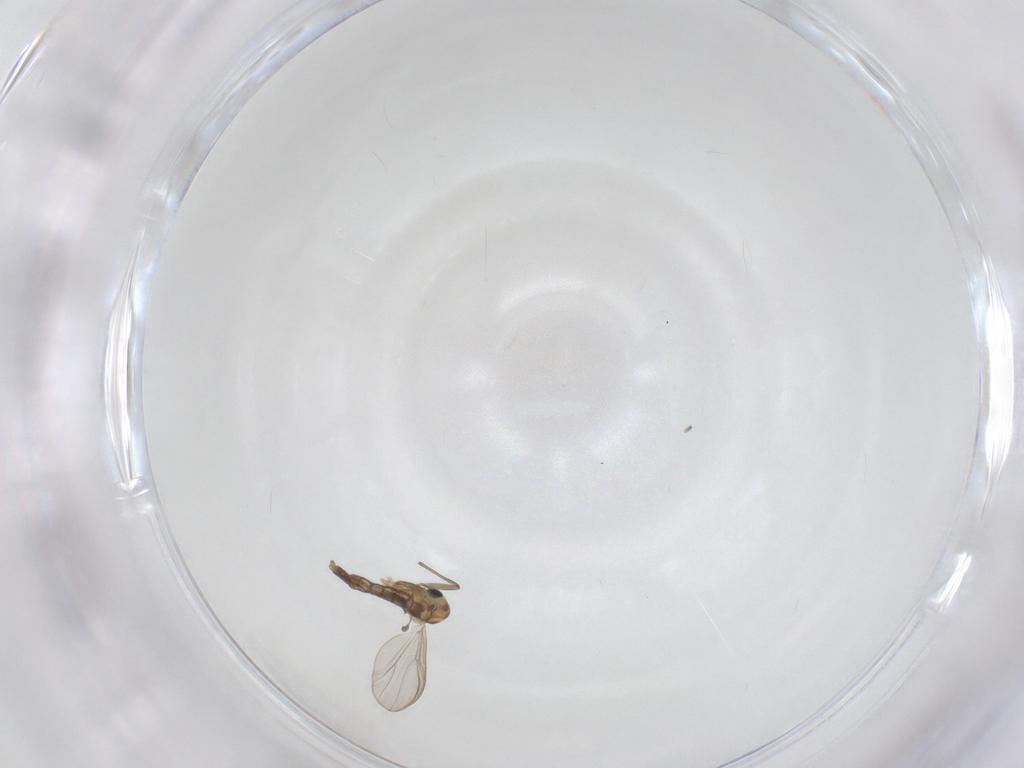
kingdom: Animalia
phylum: Arthropoda
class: Insecta
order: Diptera
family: Chironomidae
